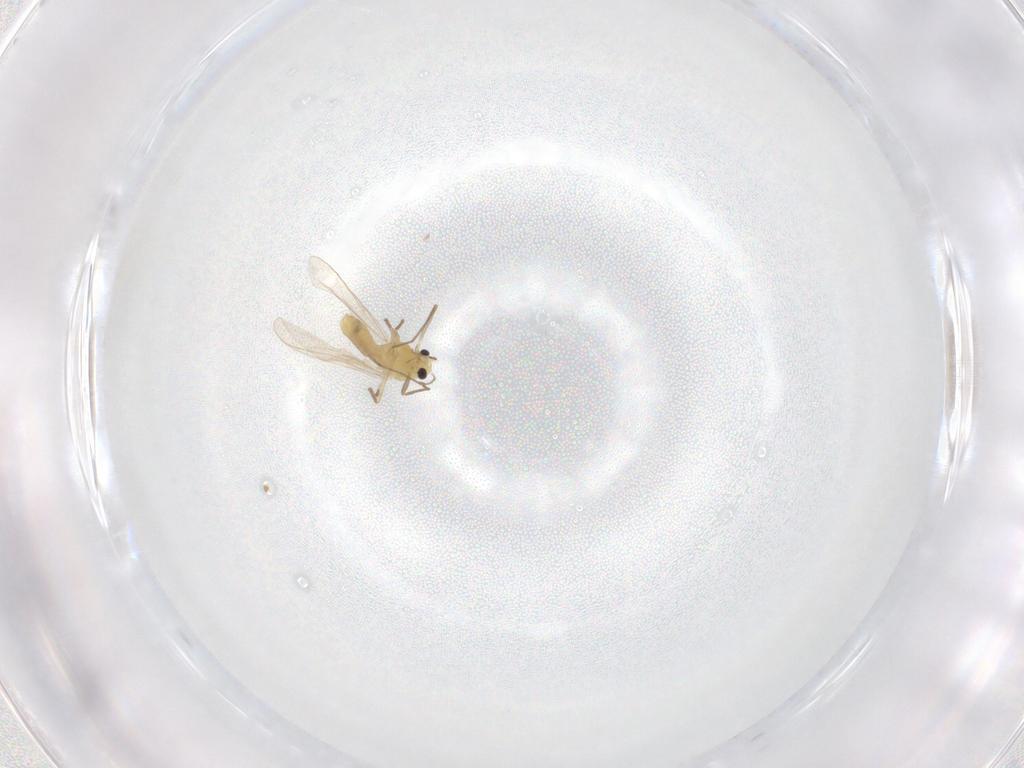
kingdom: Animalia
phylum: Arthropoda
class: Insecta
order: Diptera
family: Chironomidae
